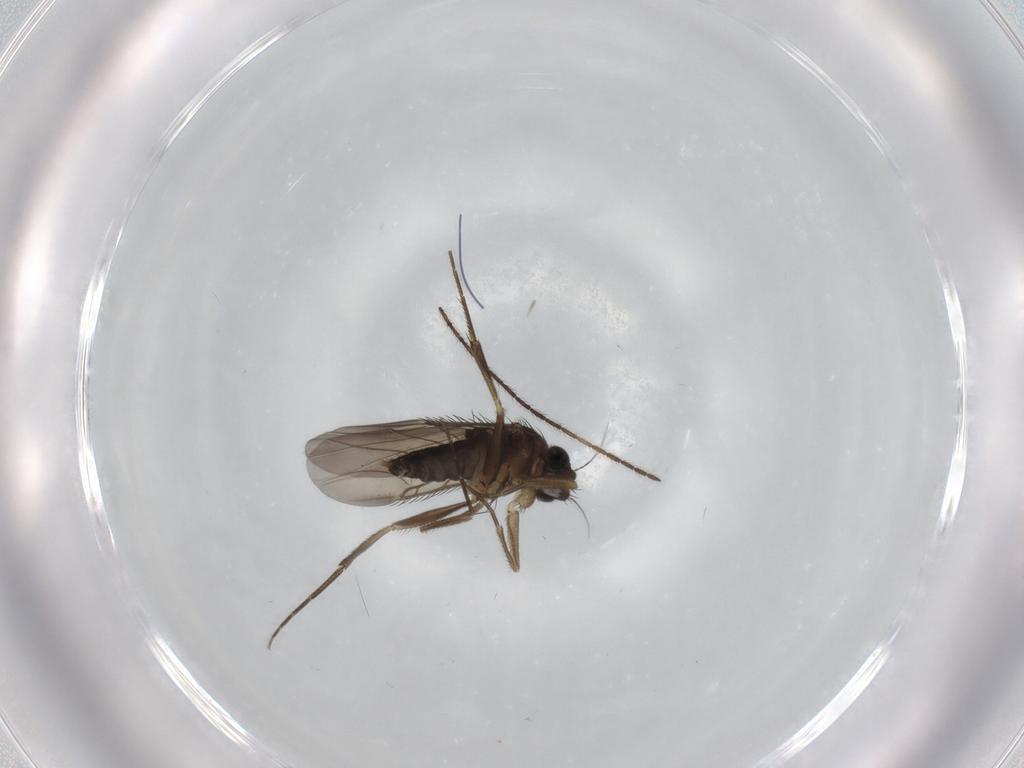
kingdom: Animalia
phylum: Arthropoda
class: Insecta
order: Diptera
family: Phoridae
